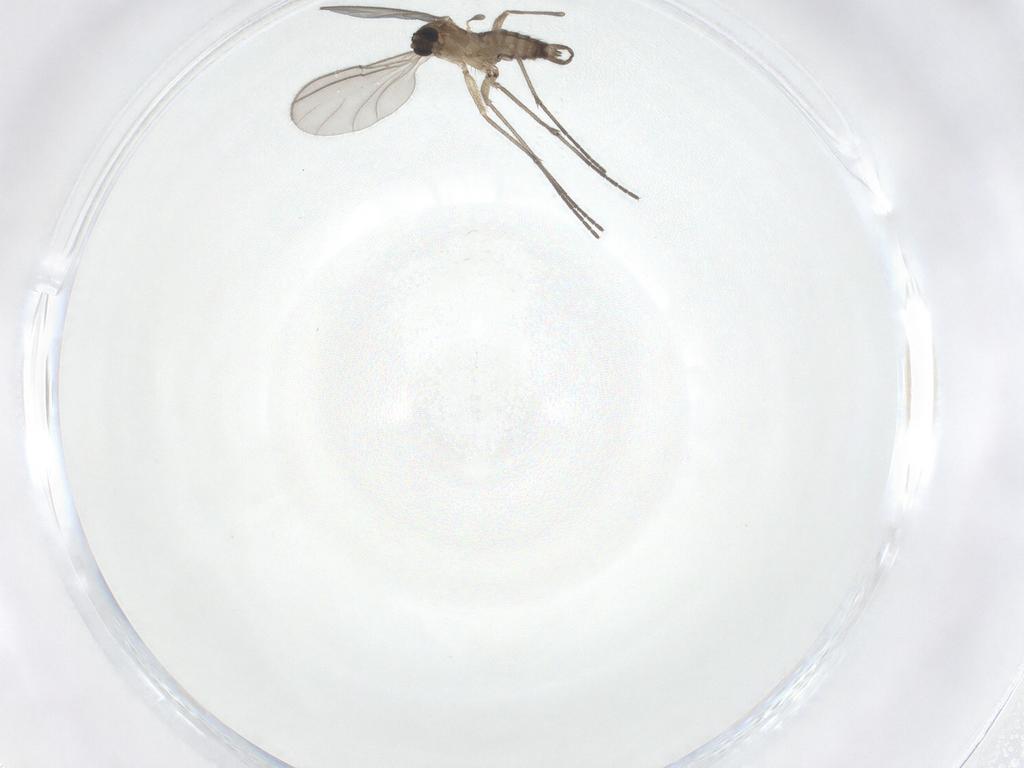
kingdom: Animalia
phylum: Arthropoda
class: Insecta
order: Diptera
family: Sciaridae
